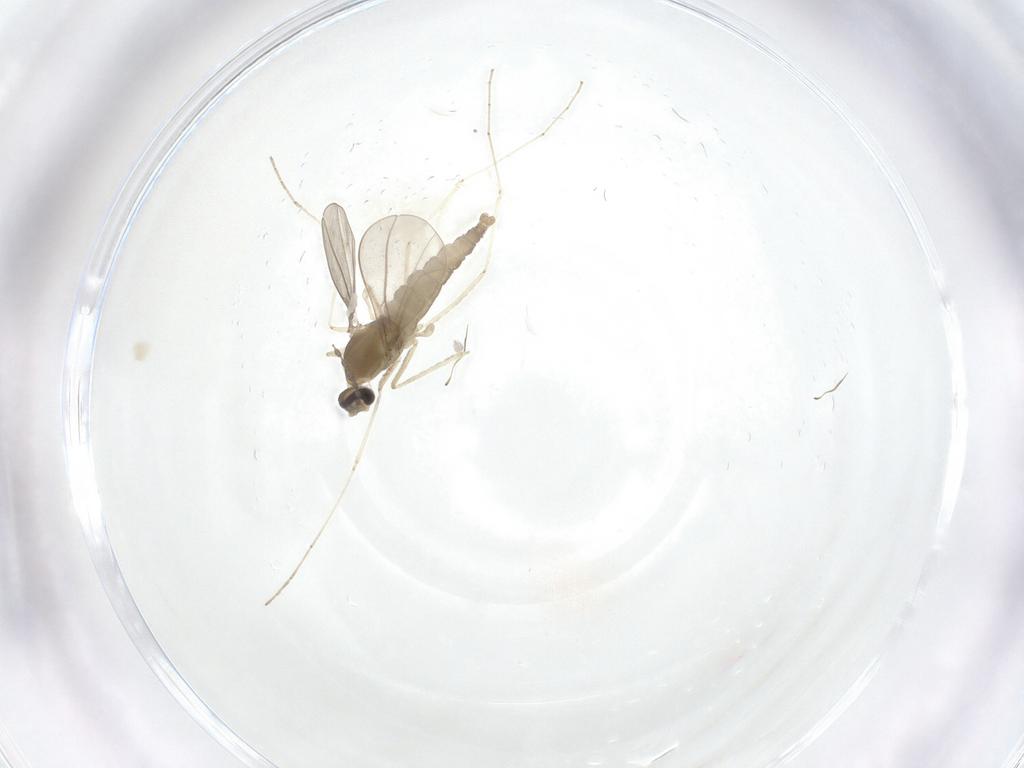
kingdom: Animalia
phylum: Arthropoda
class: Insecta
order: Diptera
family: Cecidomyiidae
